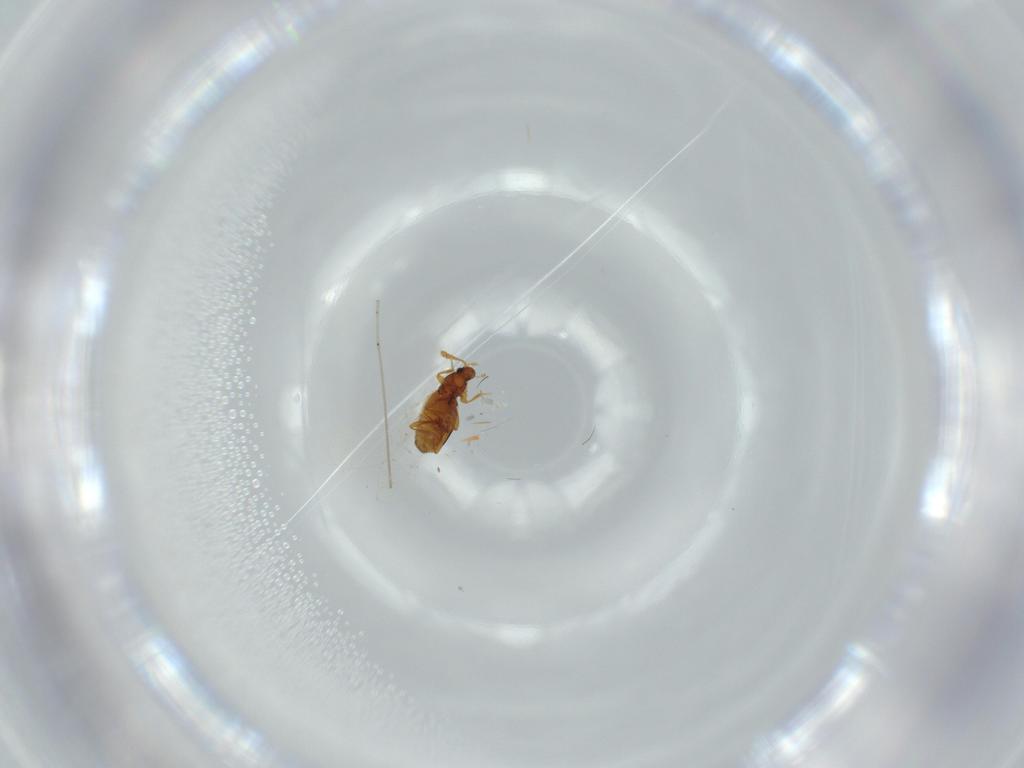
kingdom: Animalia
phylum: Arthropoda
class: Insecta
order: Coleoptera
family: Staphylinidae
